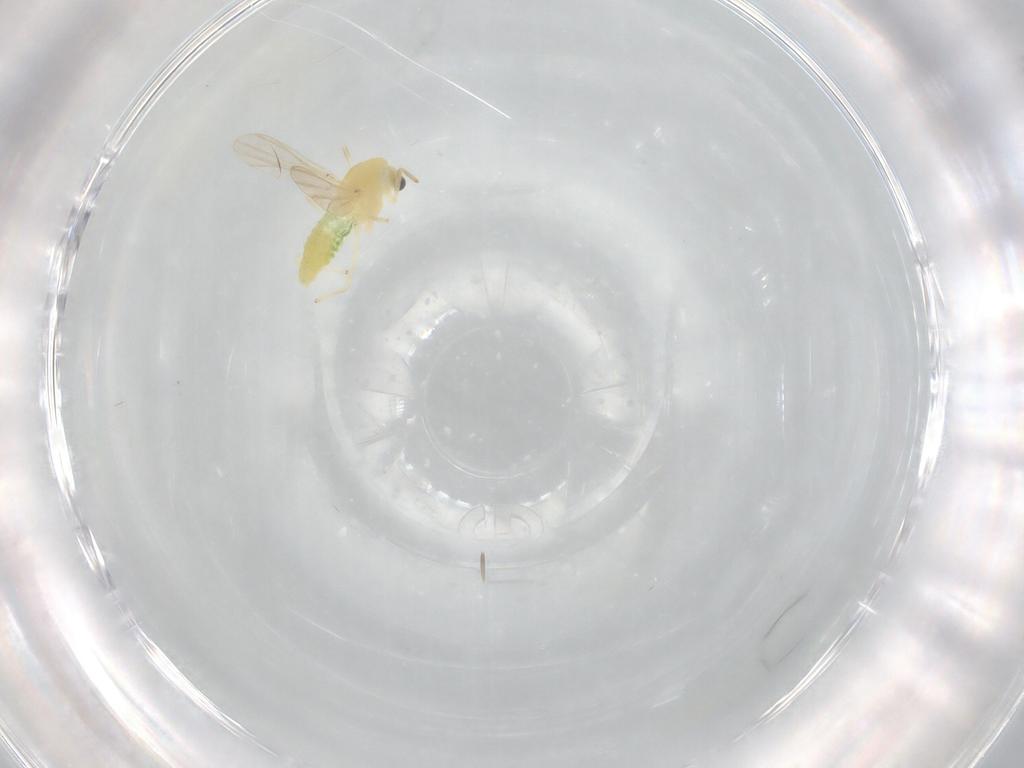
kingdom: Animalia
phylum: Arthropoda
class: Insecta
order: Diptera
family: Chironomidae
